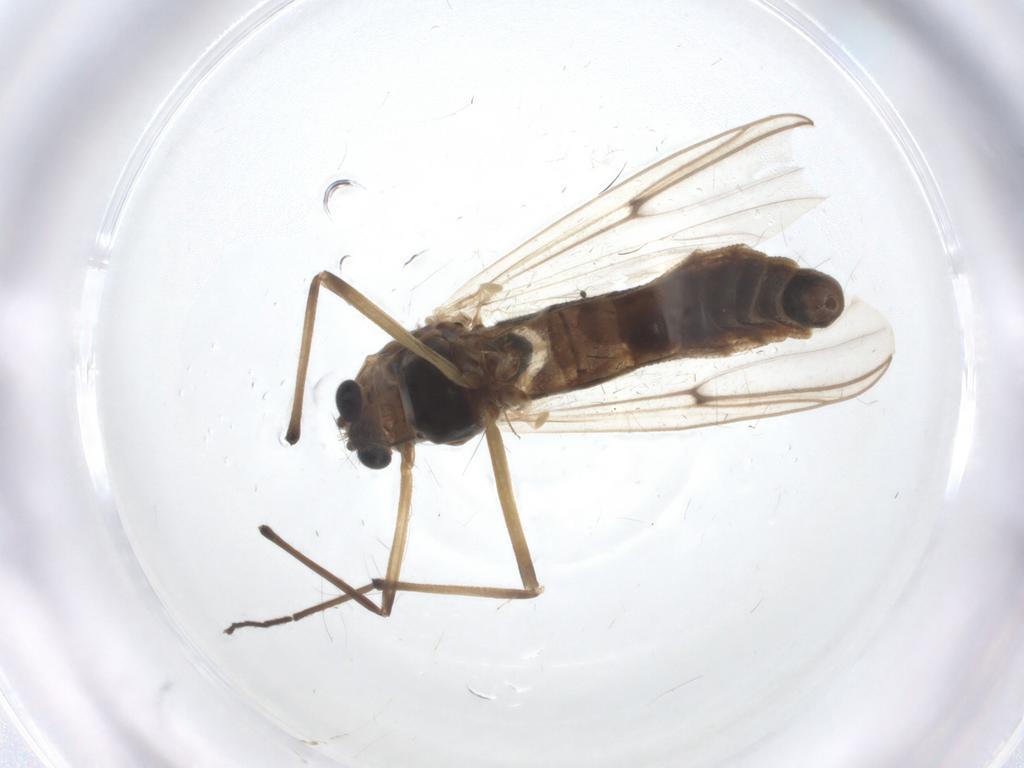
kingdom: Animalia
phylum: Arthropoda
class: Insecta
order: Diptera
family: Chironomidae
